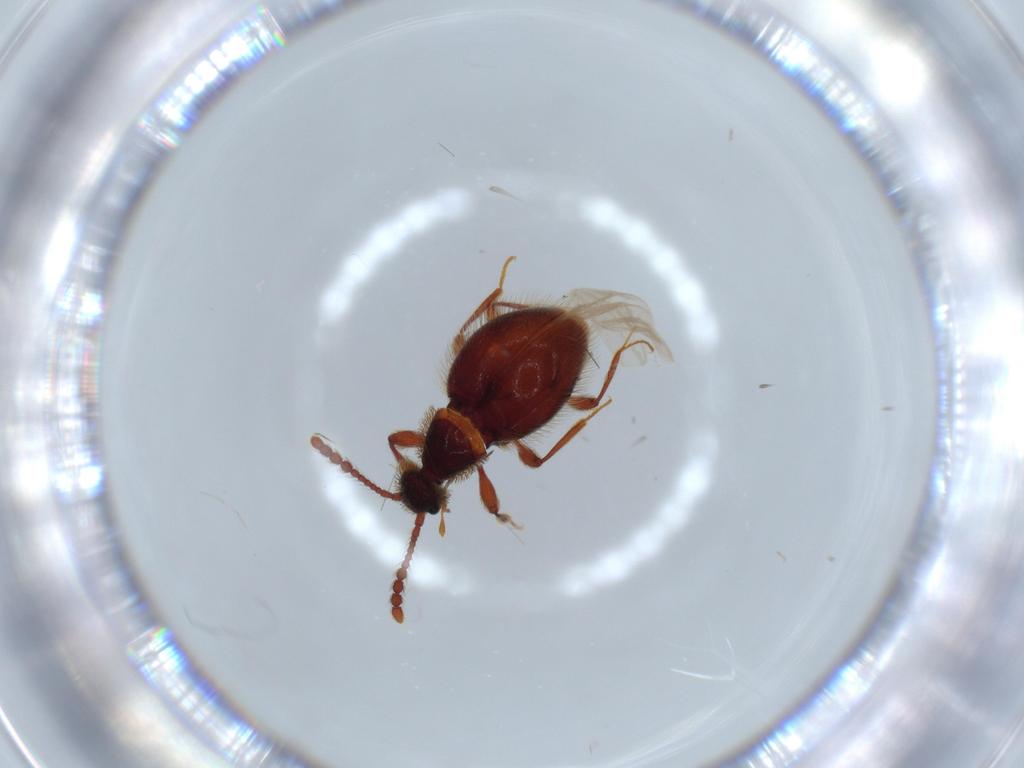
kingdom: Animalia
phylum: Arthropoda
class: Insecta
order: Coleoptera
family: Staphylinidae
